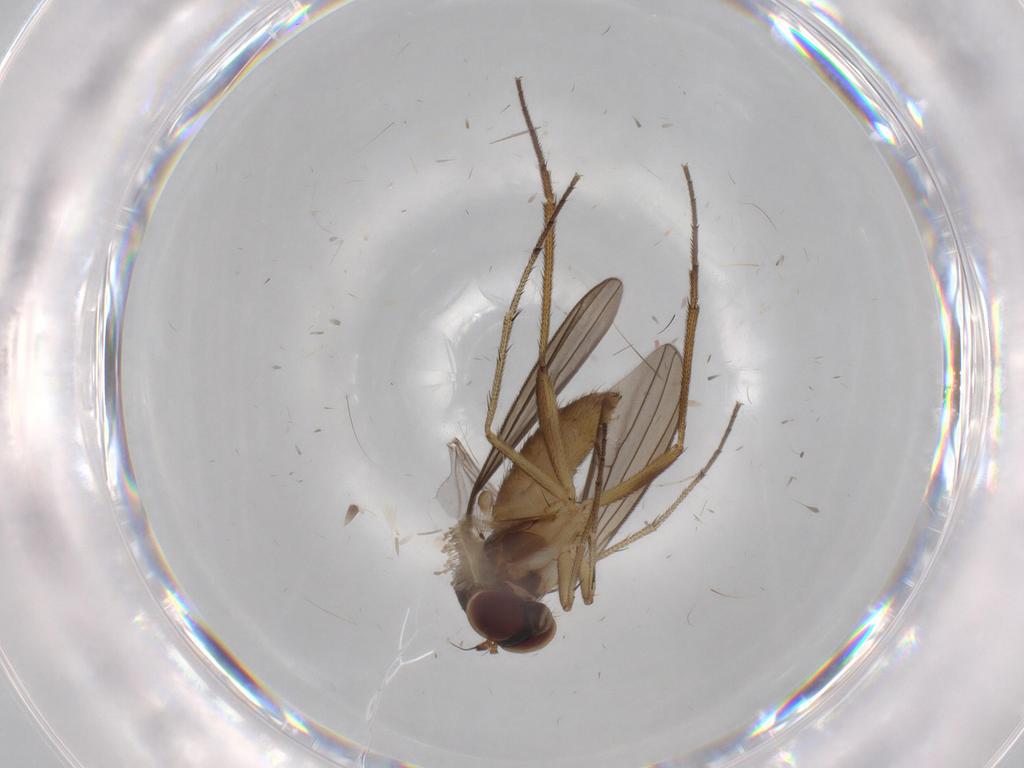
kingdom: Animalia
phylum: Arthropoda
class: Insecta
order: Diptera
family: Dolichopodidae
